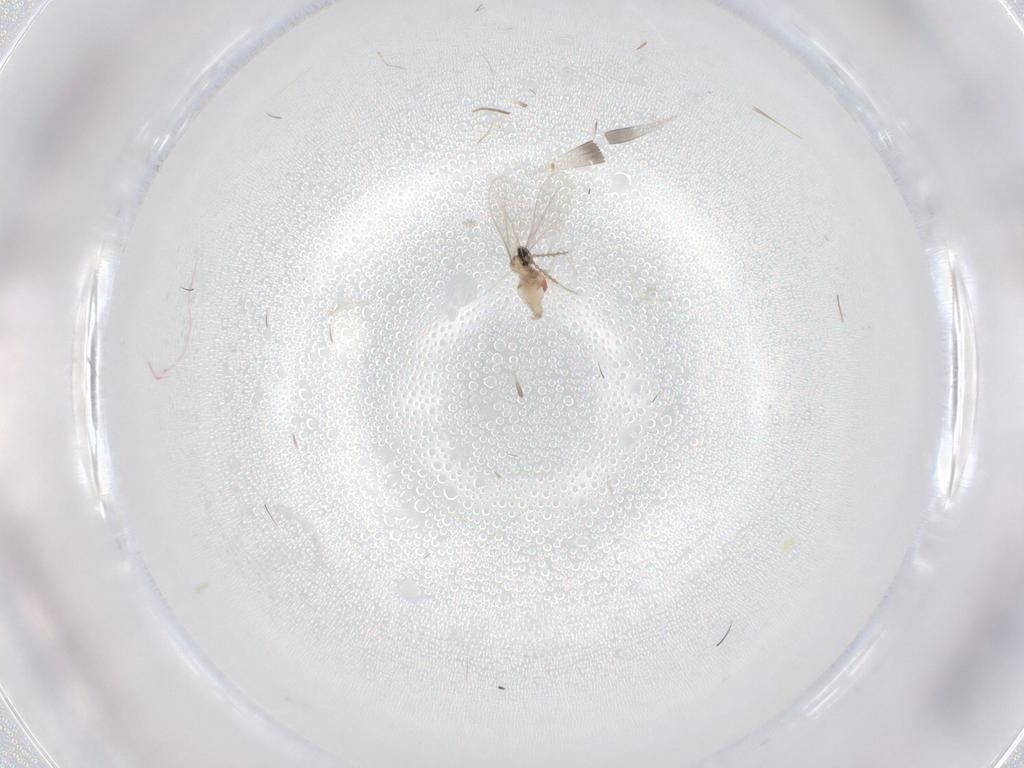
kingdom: Animalia
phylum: Arthropoda
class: Insecta
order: Diptera
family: Cecidomyiidae
